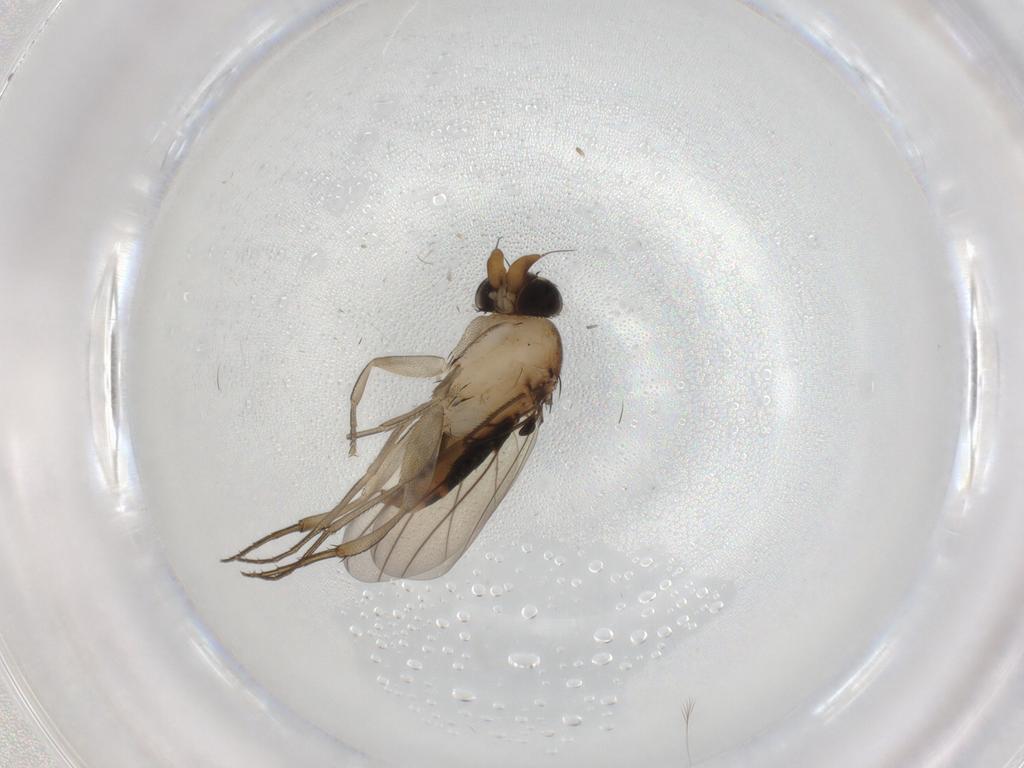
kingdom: Animalia
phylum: Arthropoda
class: Insecta
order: Diptera
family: Phoridae
